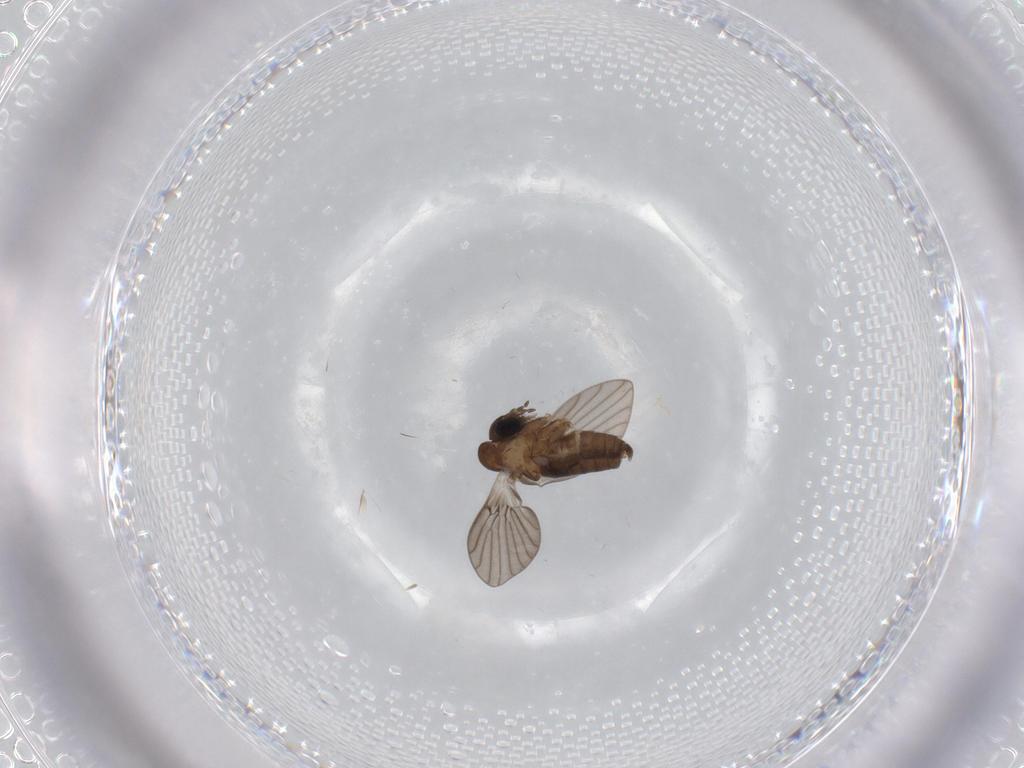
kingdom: Animalia
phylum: Arthropoda
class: Insecta
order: Diptera
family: Psychodidae
